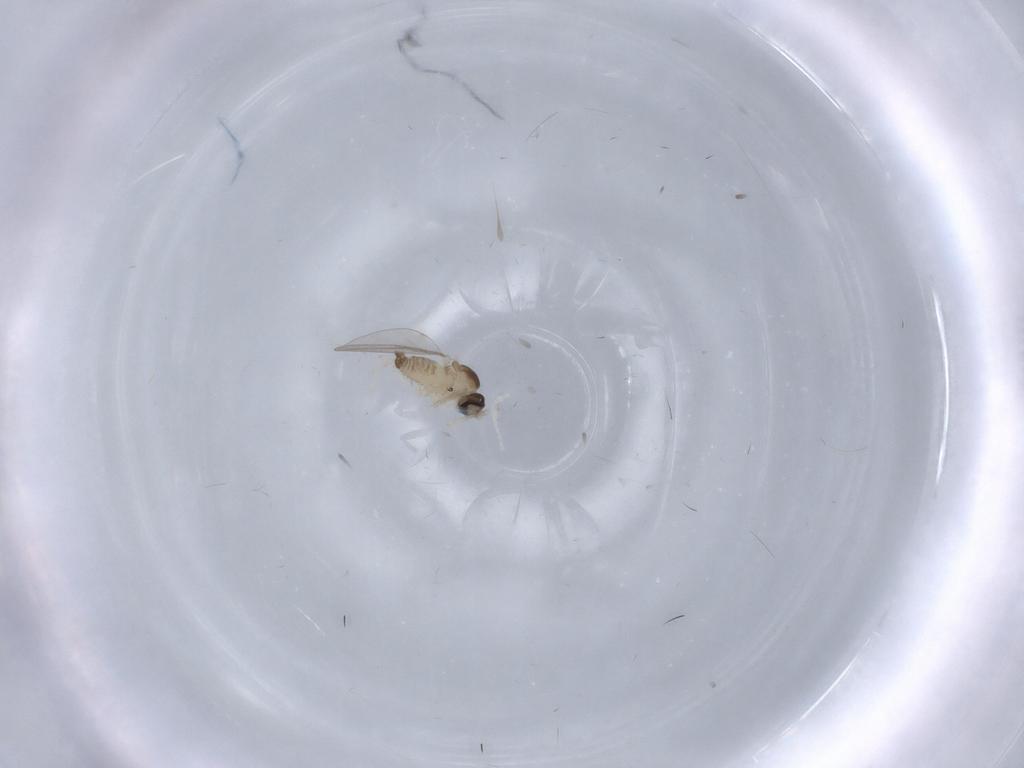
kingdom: Animalia
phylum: Arthropoda
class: Insecta
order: Diptera
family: Cecidomyiidae
